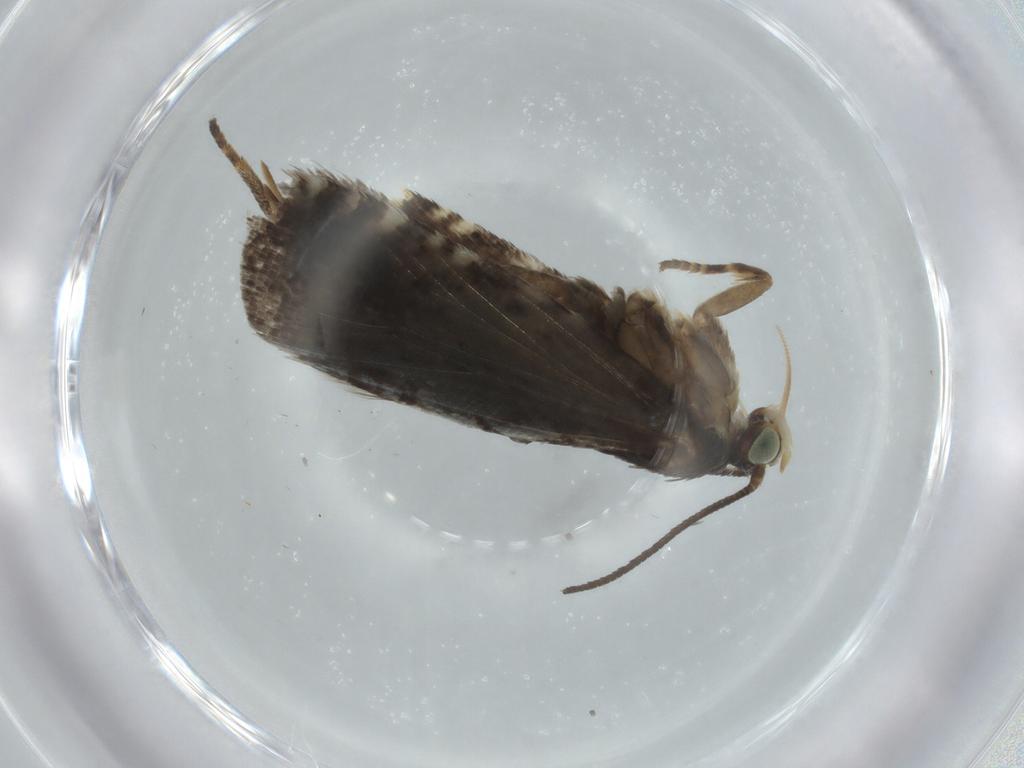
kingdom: Animalia
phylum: Arthropoda
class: Insecta
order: Lepidoptera
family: Tortricidae
